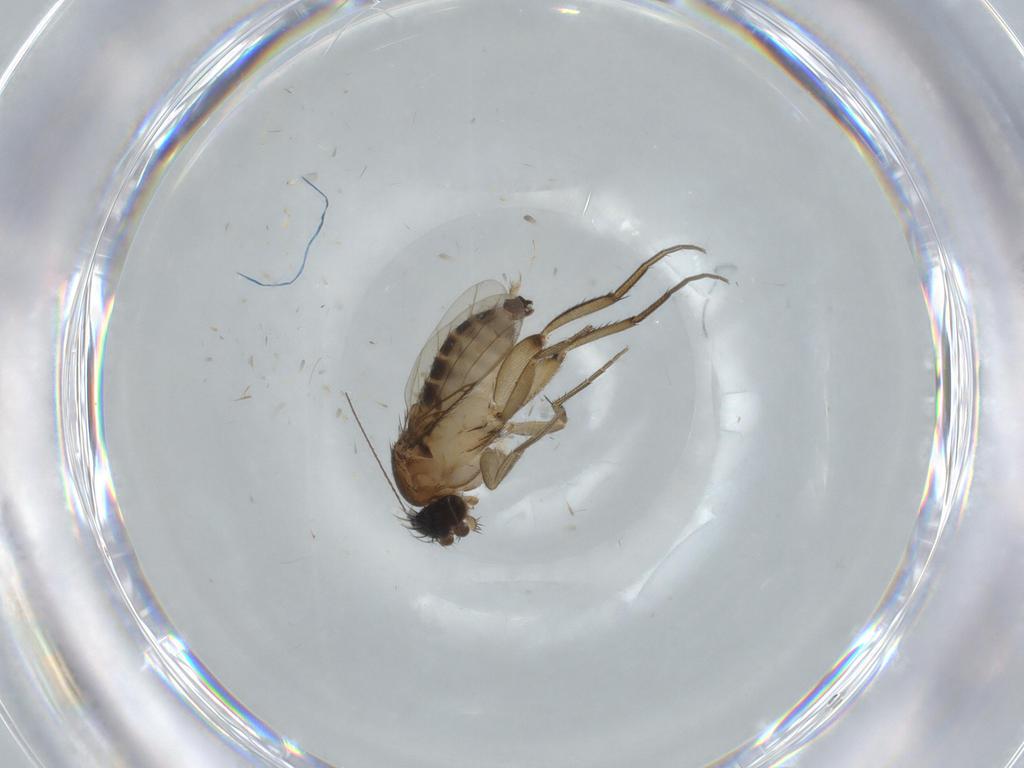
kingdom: Animalia
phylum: Arthropoda
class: Insecta
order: Diptera
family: Phoridae
